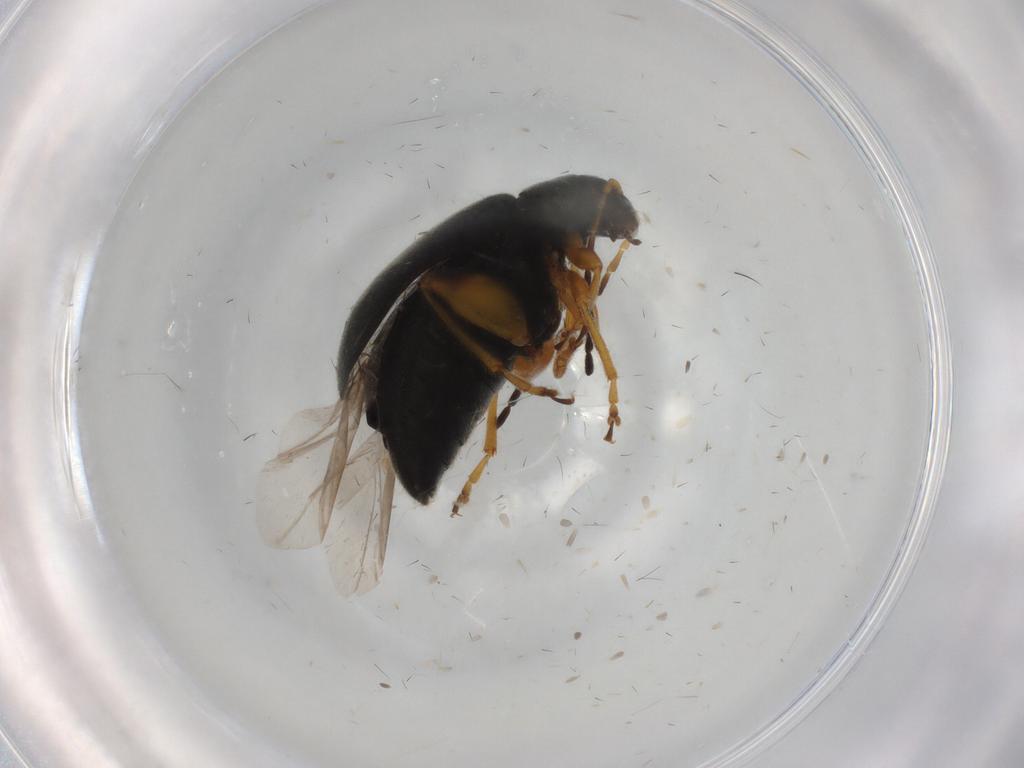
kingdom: Animalia
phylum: Arthropoda
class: Insecta
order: Coleoptera
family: Chrysomelidae
